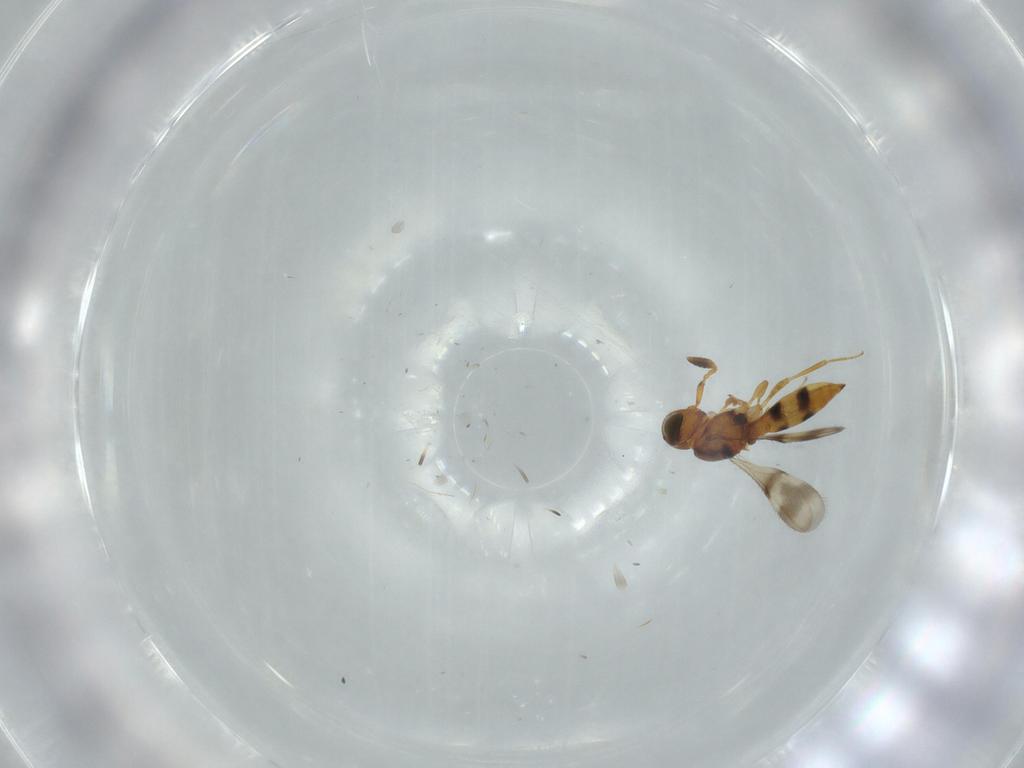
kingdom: Animalia
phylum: Arthropoda
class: Insecta
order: Hymenoptera
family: Scelionidae
